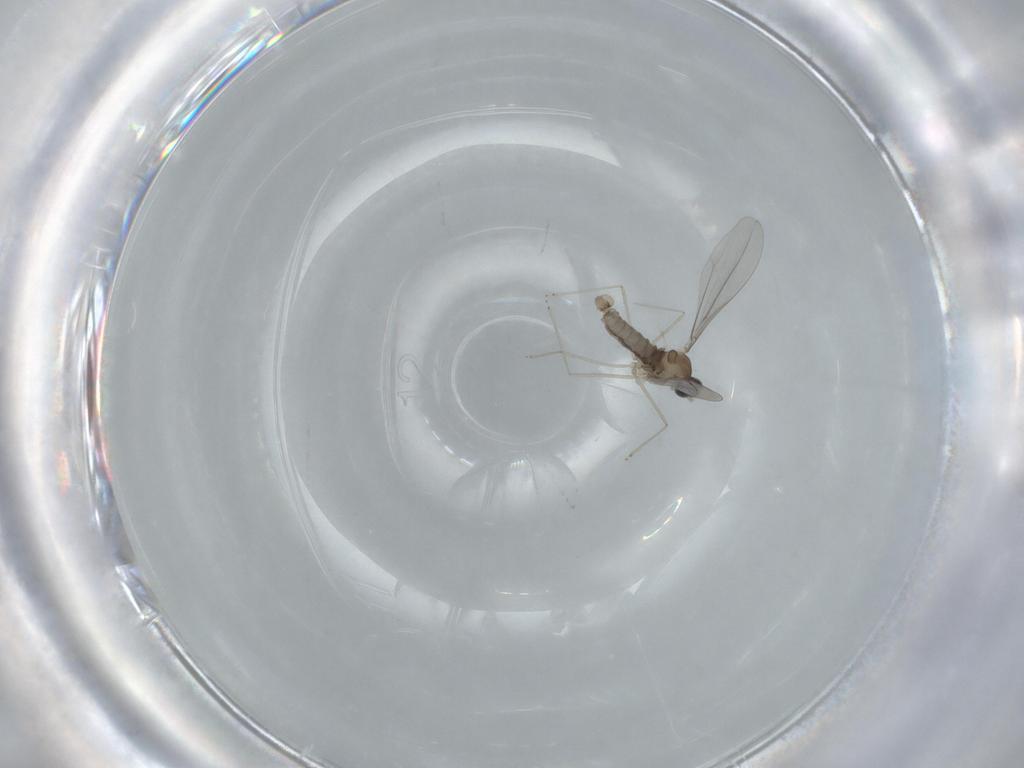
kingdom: Animalia
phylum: Arthropoda
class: Insecta
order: Diptera
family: Cecidomyiidae
